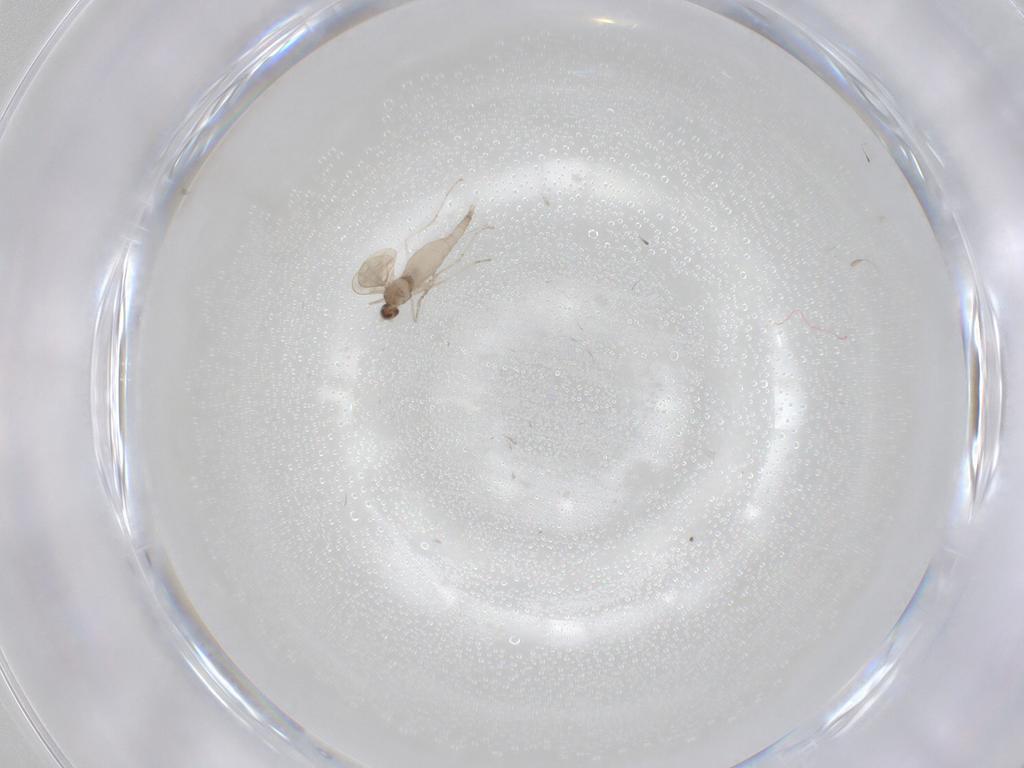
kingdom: Animalia
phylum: Arthropoda
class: Insecta
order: Diptera
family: Cecidomyiidae
